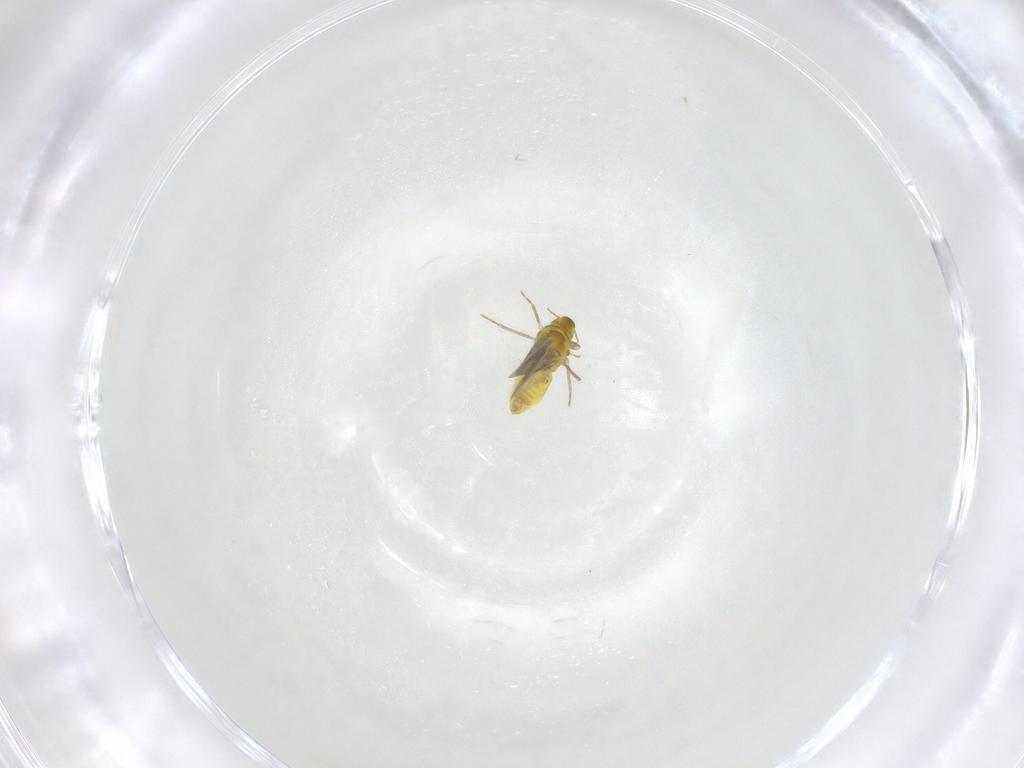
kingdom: Animalia
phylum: Arthropoda
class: Insecta
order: Hemiptera
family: Aleyrodidae
